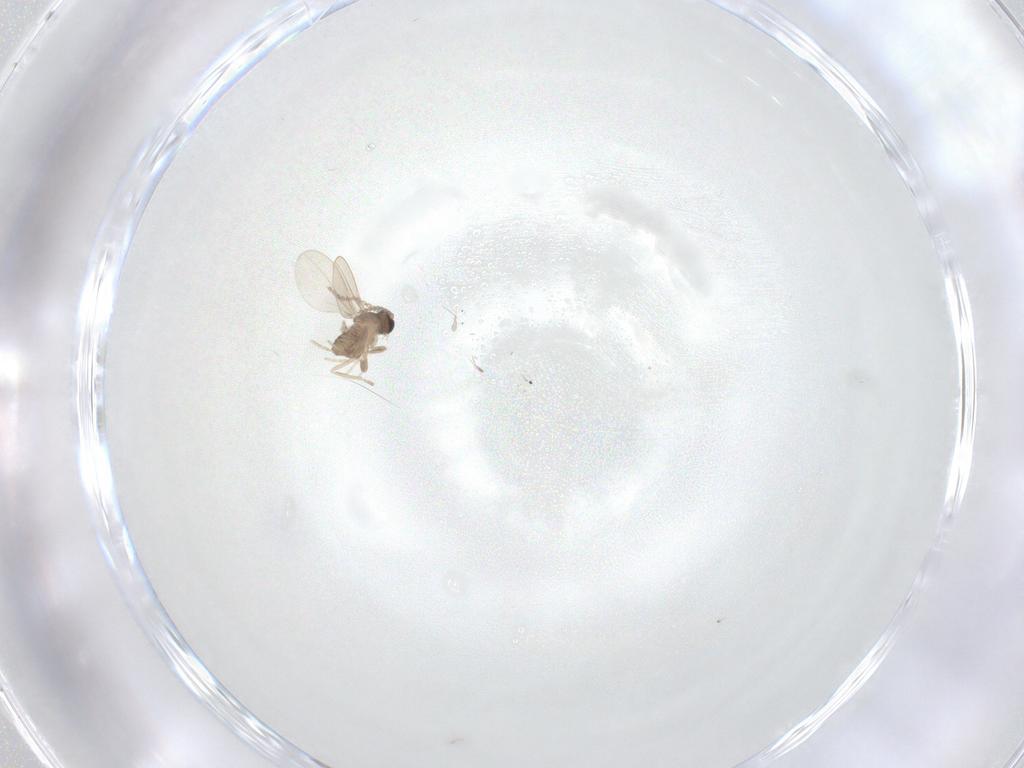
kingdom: Animalia
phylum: Arthropoda
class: Insecta
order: Diptera
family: Cecidomyiidae
